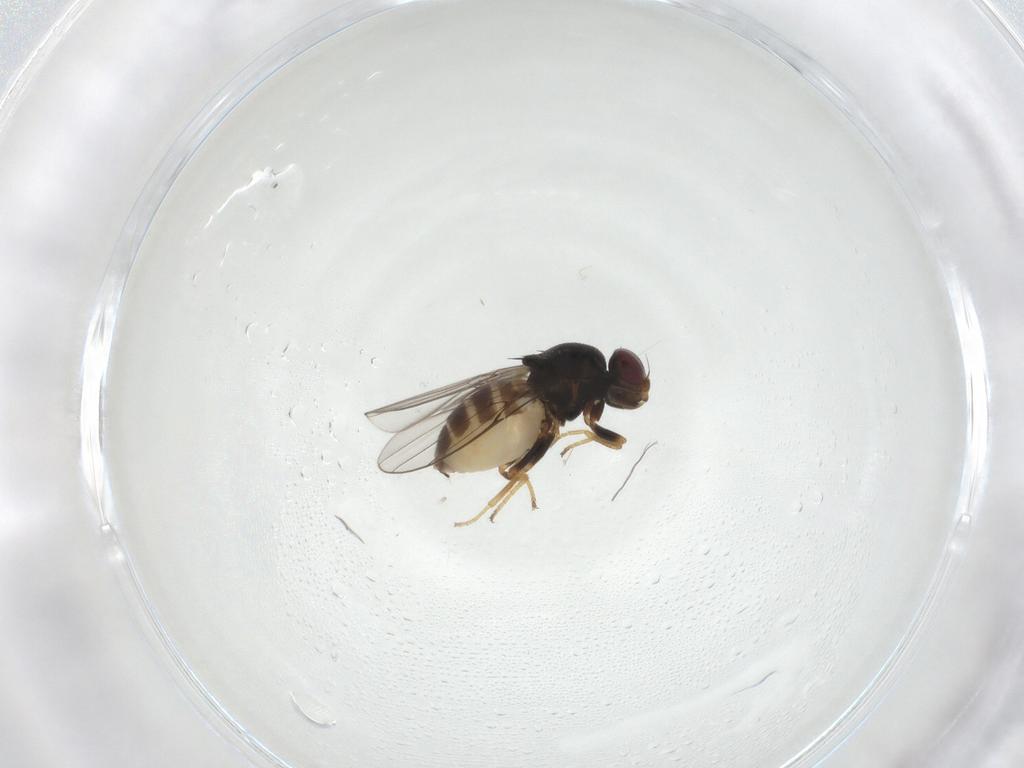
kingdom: Animalia
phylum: Arthropoda
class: Insecta
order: Diptera
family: Chloropidae
